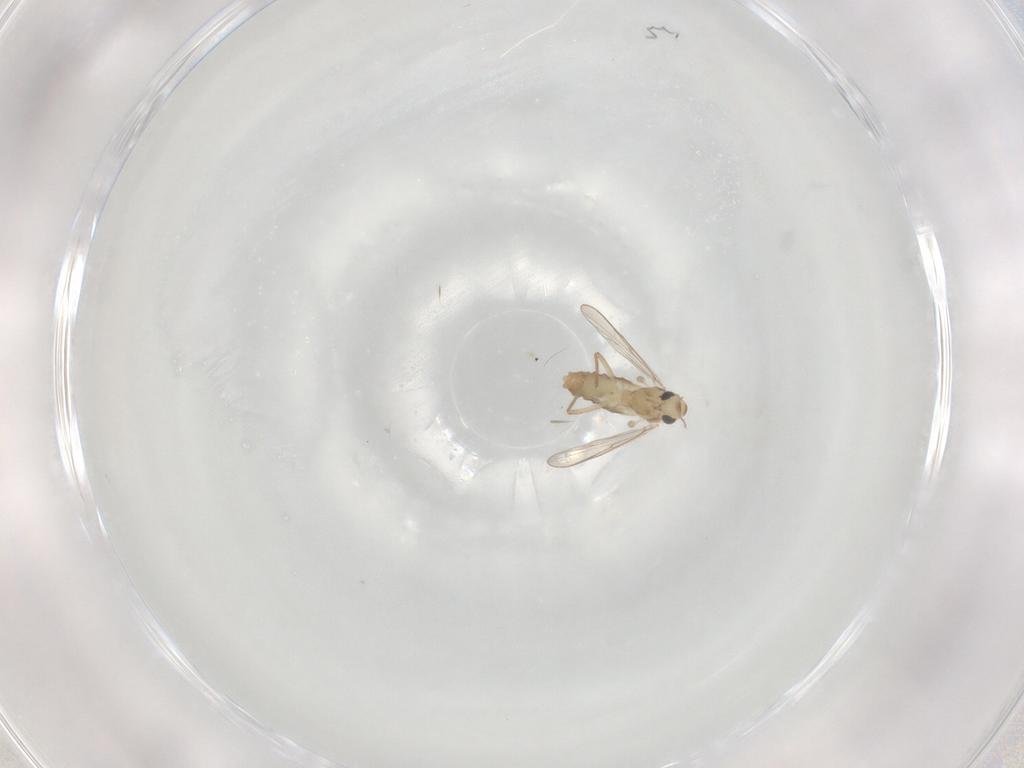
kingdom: Animalia
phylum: Arthropoda
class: Insecta
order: Diptera
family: Chironomidae
